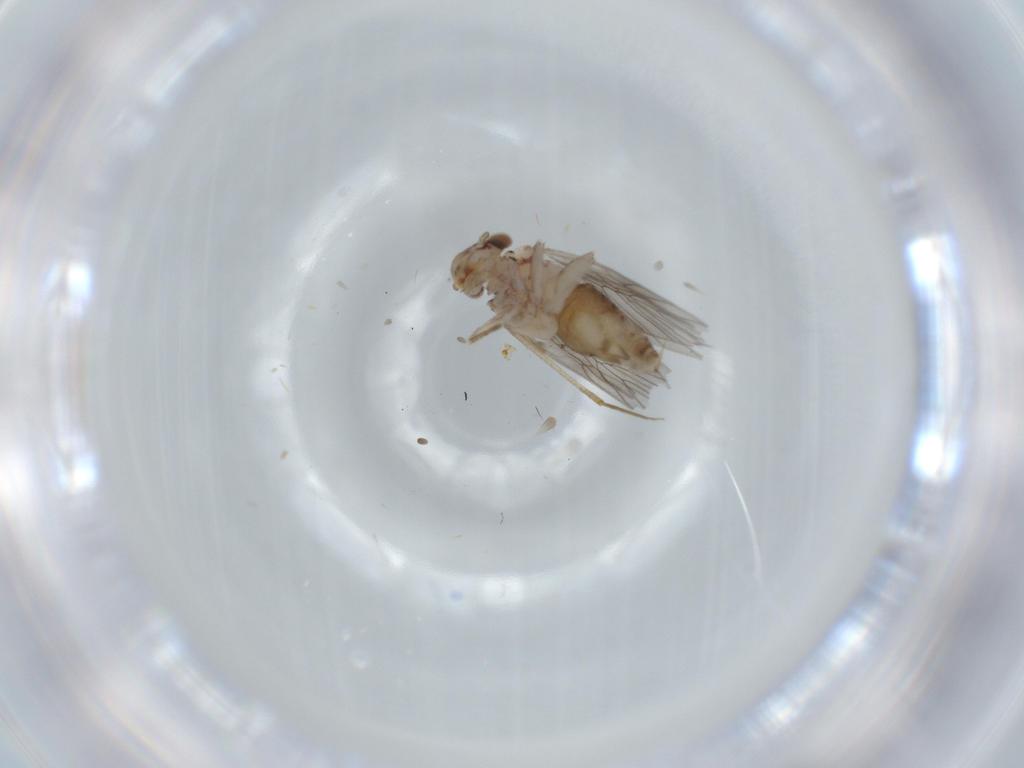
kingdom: Animalia
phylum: Arthropoda
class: Insecta
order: Psocodea
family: Lepidopsocidae
